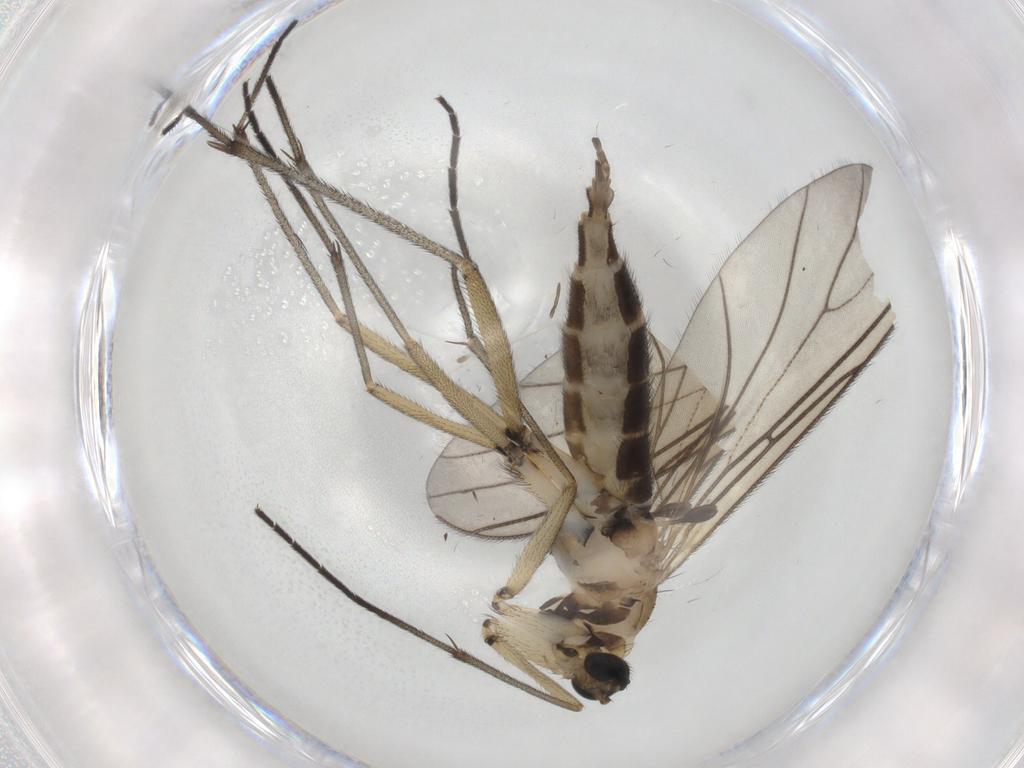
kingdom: Animalia
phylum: Arthropoda
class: Insecta
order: Diptera
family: Sciaridae
